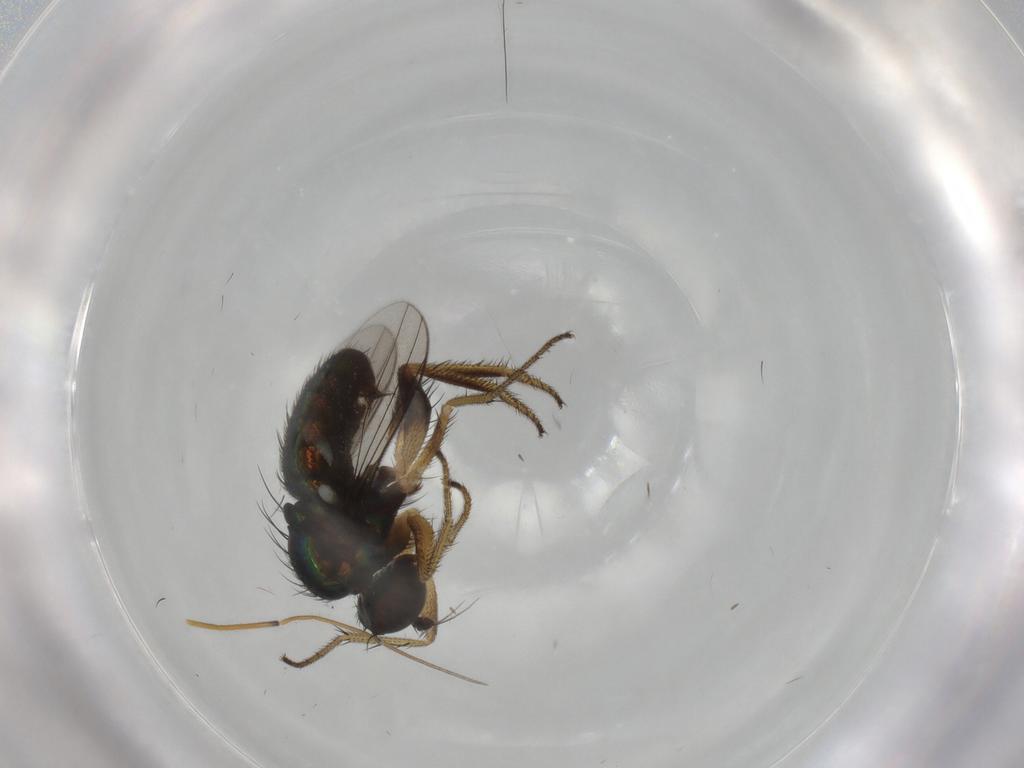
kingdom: Animalia
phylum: Arthropoda
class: Insecta
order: Diptera
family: Dolichopodidae
